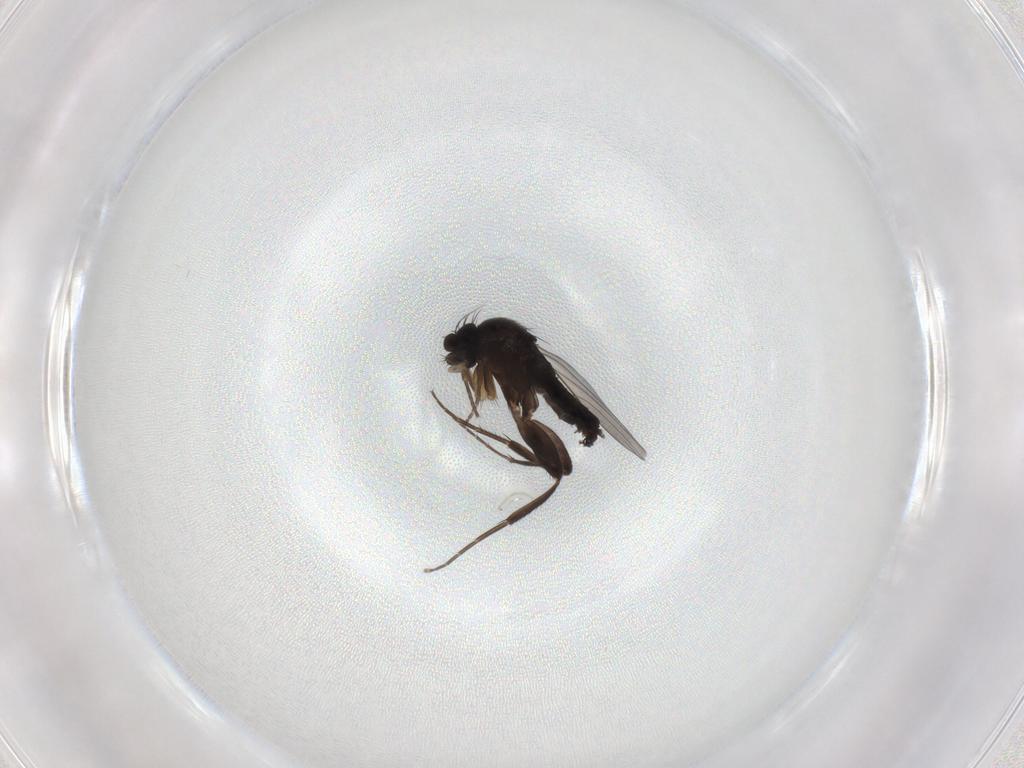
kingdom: Animalia
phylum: Arthropoda
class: Insecta
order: Diptera
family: Phoridae
